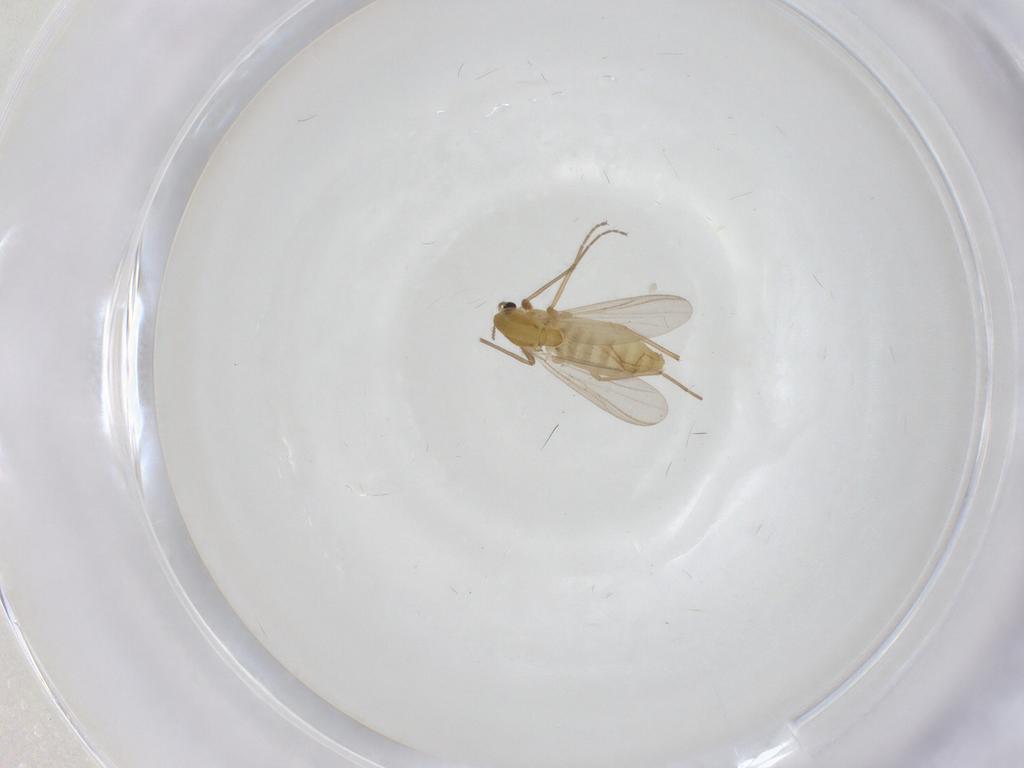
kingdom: Animalia
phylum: Arthropoda
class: Insecta
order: Diptera
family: Chironomidae
